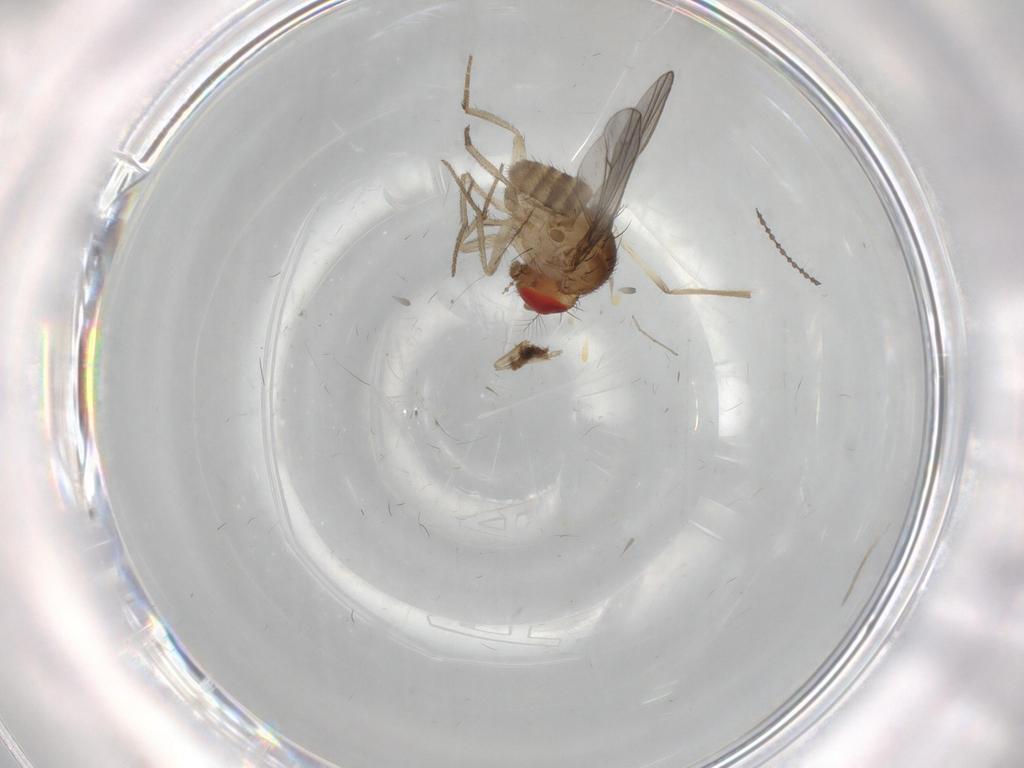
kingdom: Animalia
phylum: Arthropoda
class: Insecta
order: Diptera
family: Drosophilidae
